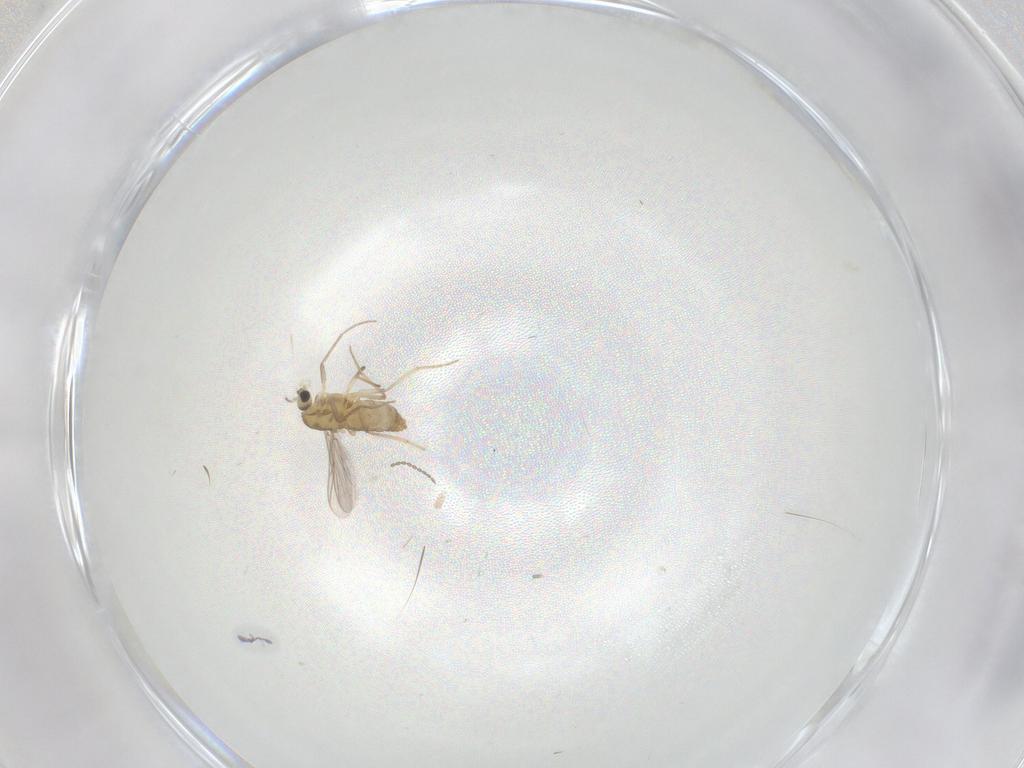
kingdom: Animalia
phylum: Arthropoda
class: Insecta
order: Diptera
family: Chironomidae
